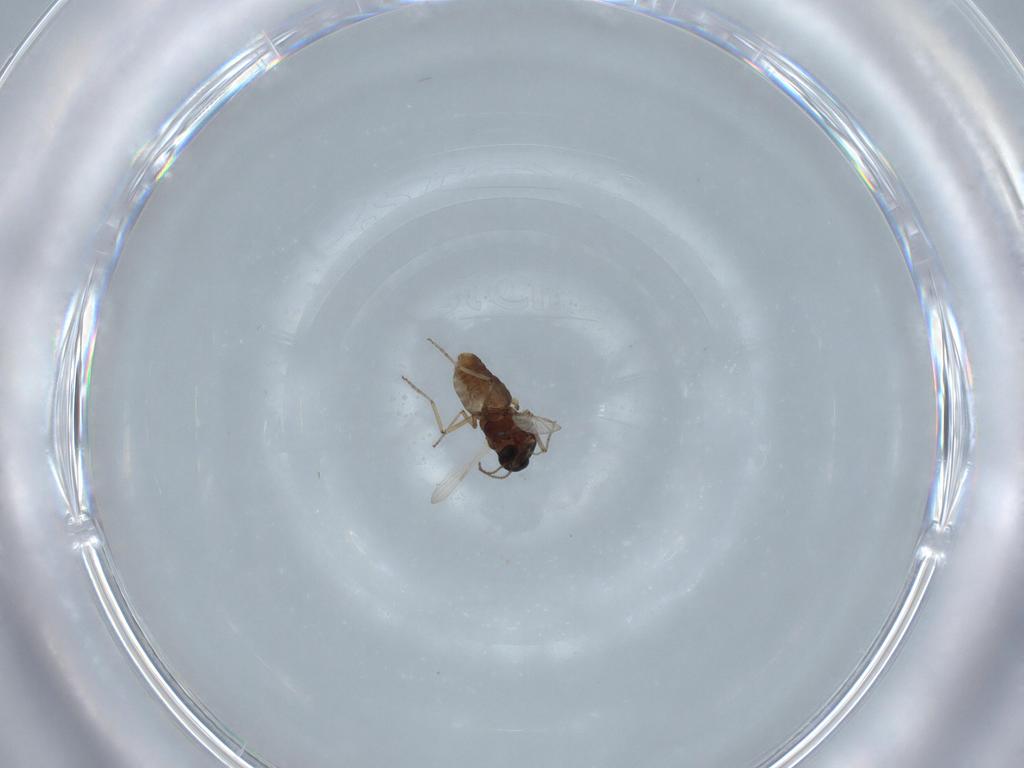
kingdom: Animalia
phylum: Arthropoda
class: Insecta
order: Diptera
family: Ceratopogonidae
